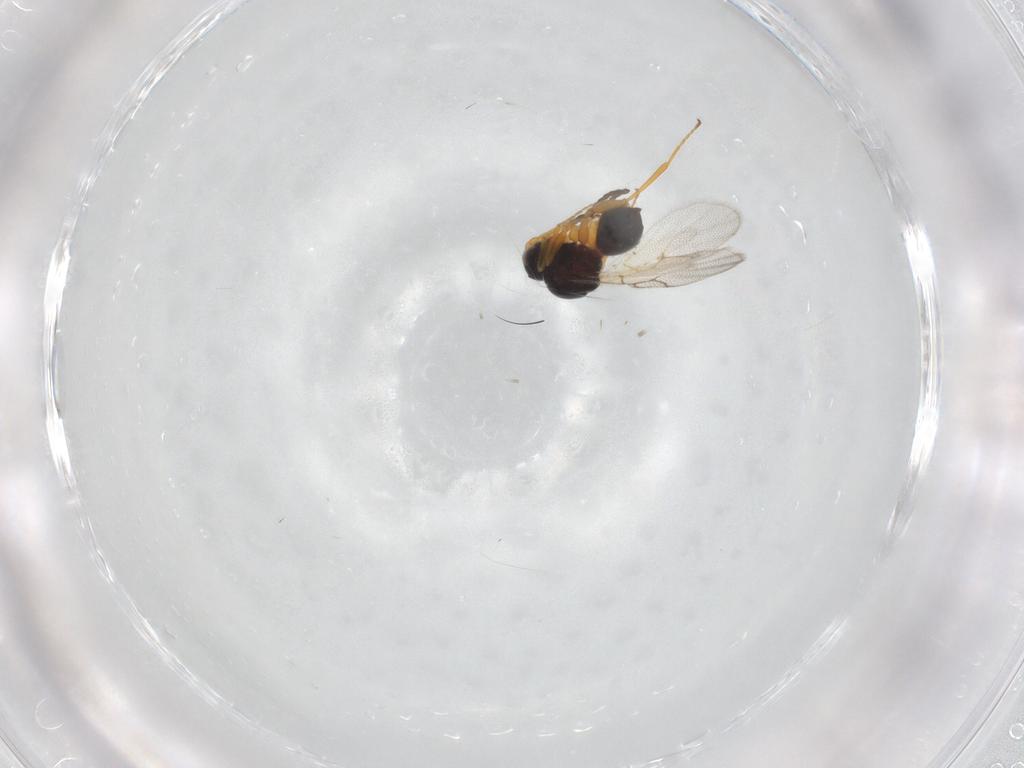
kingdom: Animalia
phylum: Arthropoda
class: Insecta
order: Hymenoptera
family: Figitidae
